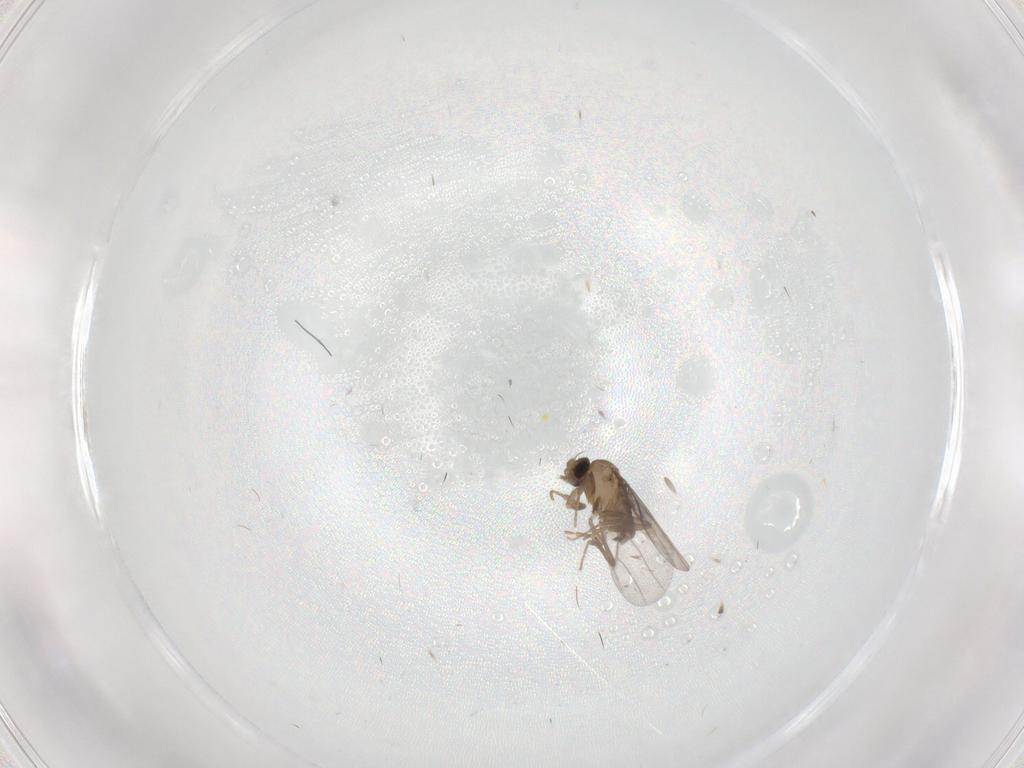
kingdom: Animalia
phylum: Arthropoda
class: Insecta
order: Diptera
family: Ceratopogonidae
